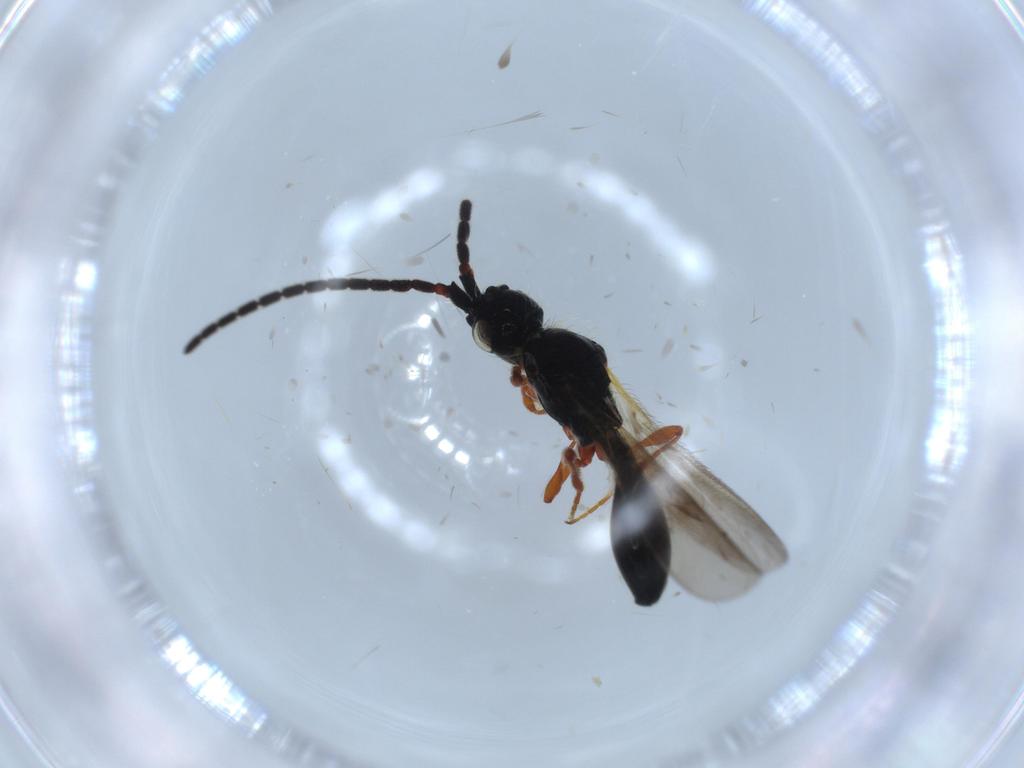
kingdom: Animalia
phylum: Arthropoda
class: Insecta
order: Hymenoptera
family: Diapriidae
